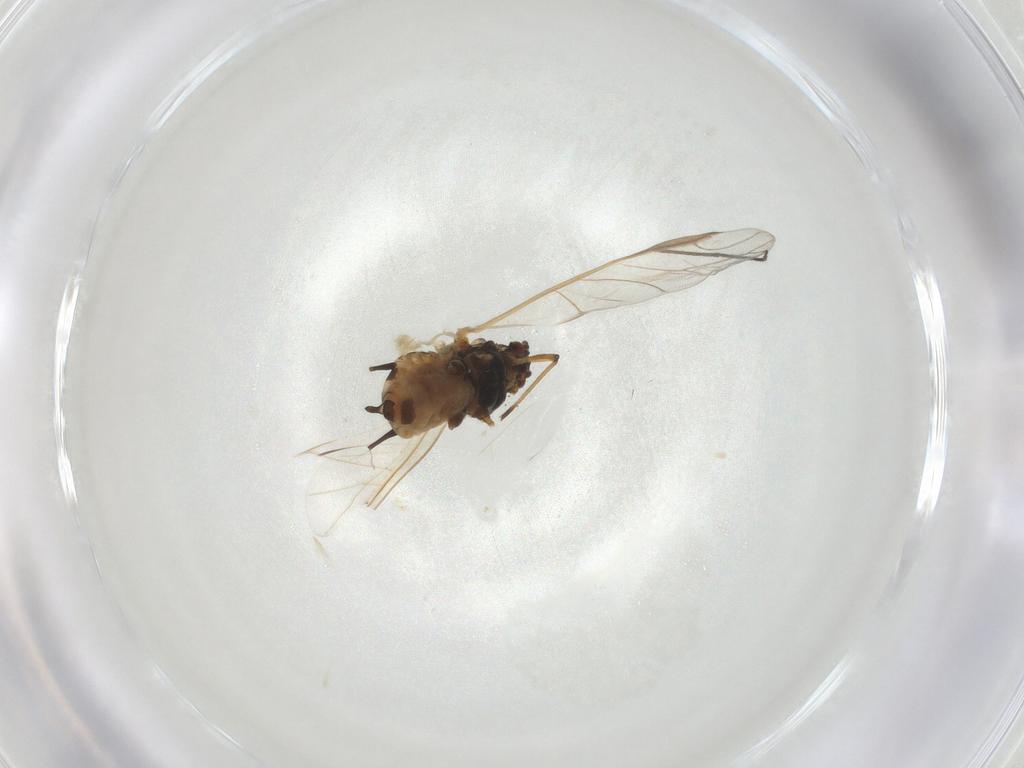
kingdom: Animalia
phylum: Arthropoda
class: Insecta
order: Hemiptera
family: Aphididae
